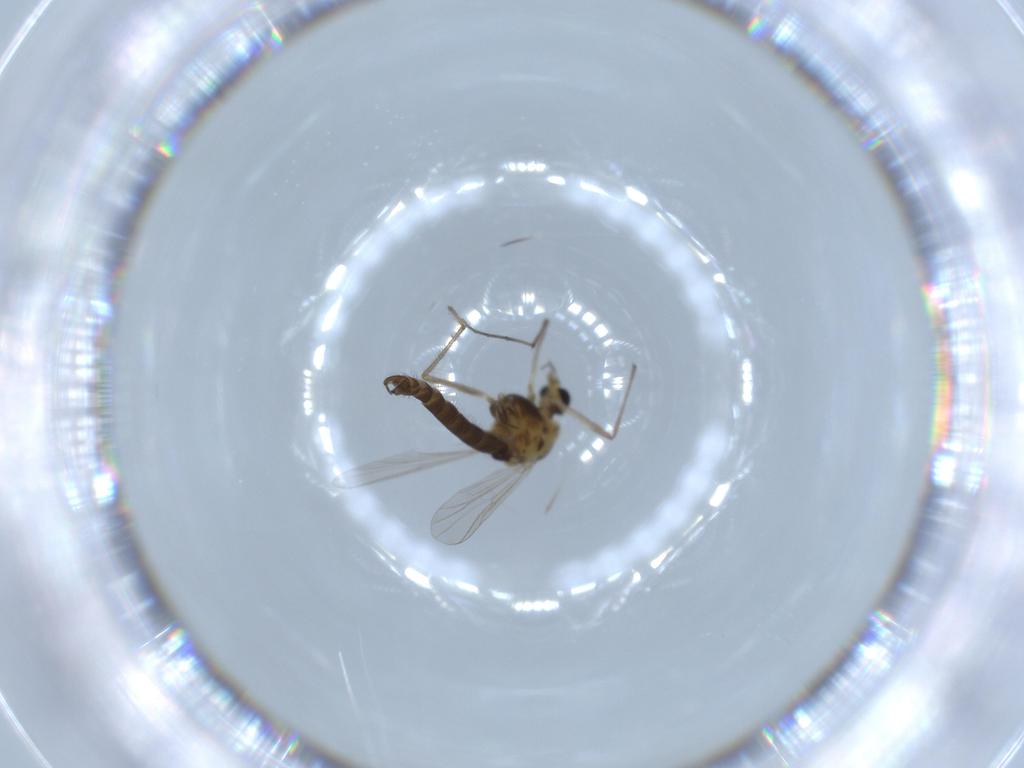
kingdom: Animalia
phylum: Arthropoda
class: Insecta
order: Diptera
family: Chironomidae
